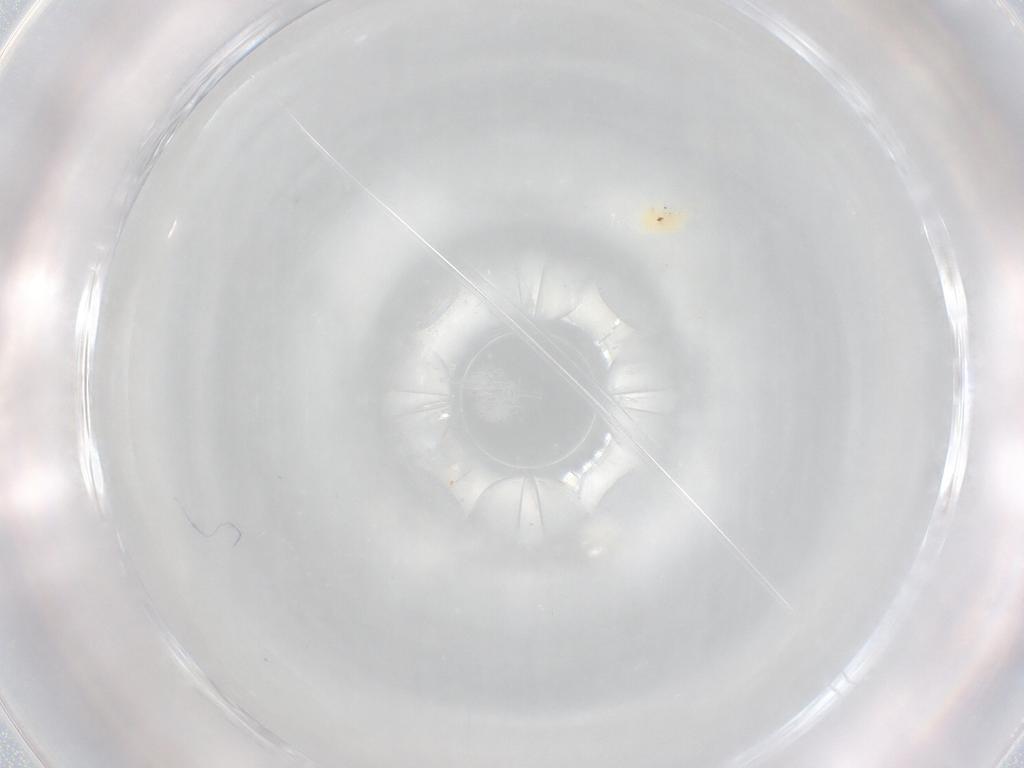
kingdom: Animalia
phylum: Arthropoda
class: Arachnida
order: Trombidiformes
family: Eupodidae
